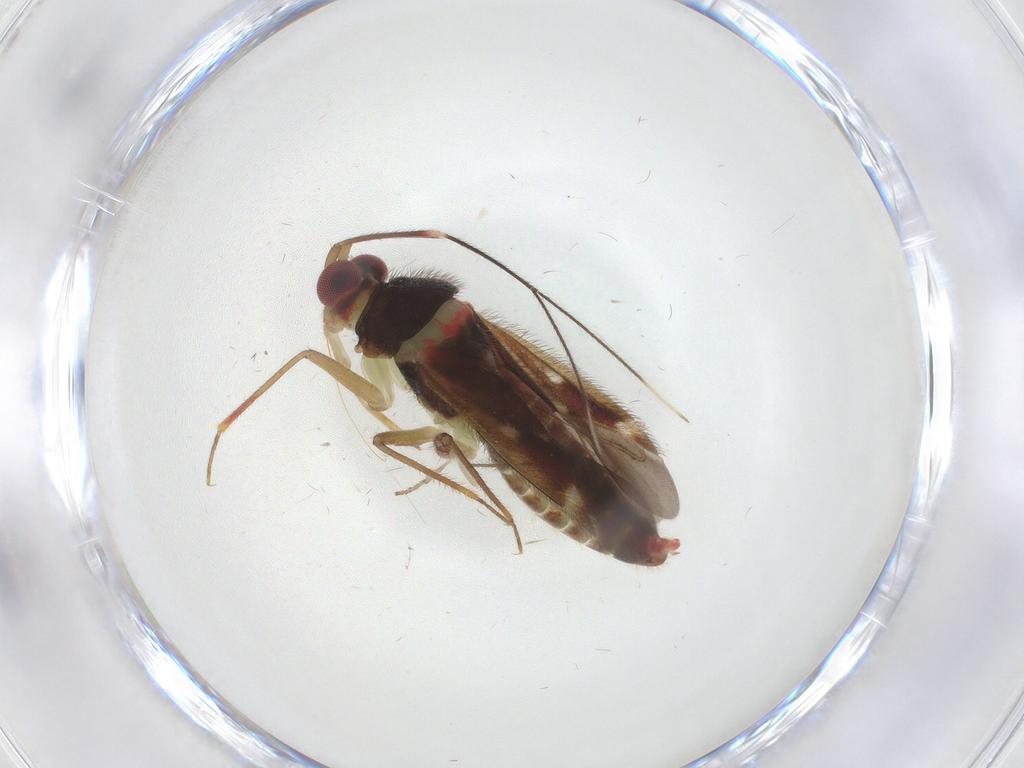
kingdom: Animalia
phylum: Arthropoda
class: Insecta
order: Hemiptera
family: Miridae
